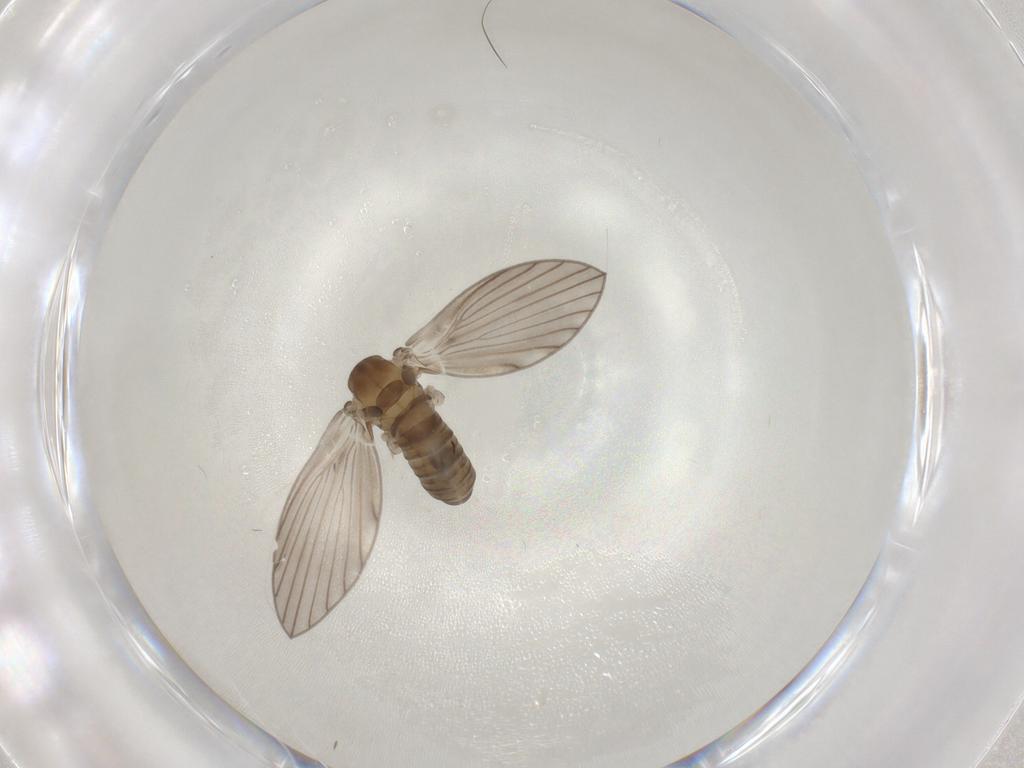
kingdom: Animalia
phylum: Arthropoda
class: Insecta
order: Diptera
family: Psychodidae
